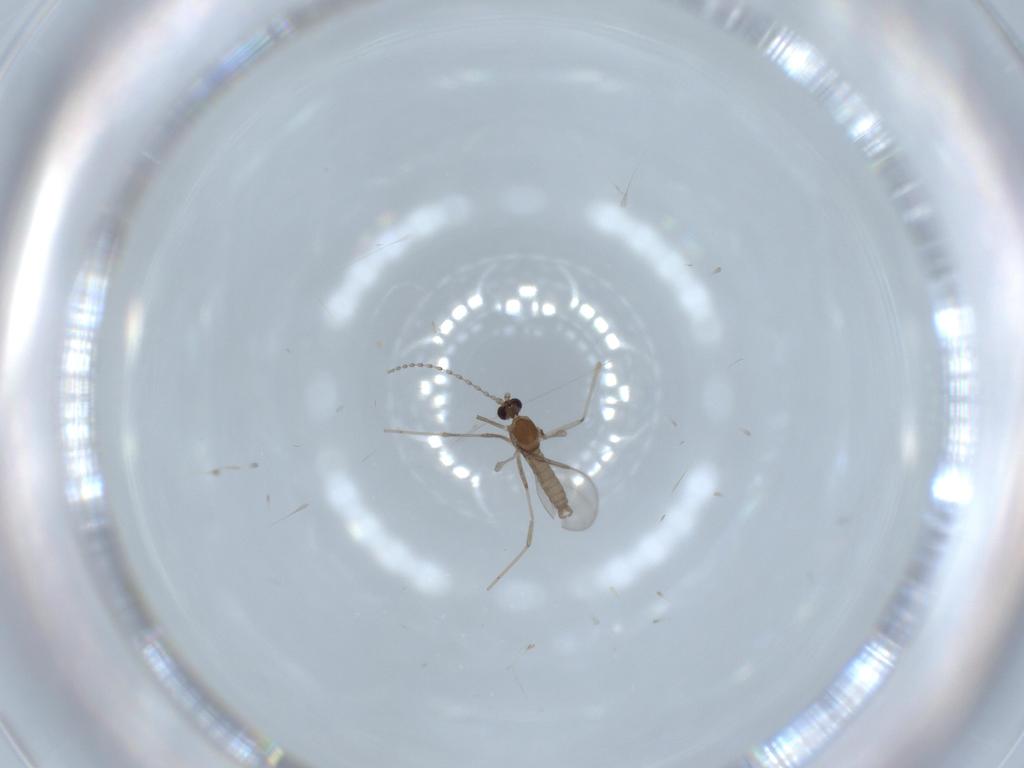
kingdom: Animalia
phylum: Arthropoda
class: Insecta
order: Diptera
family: Cecidomyiidae
